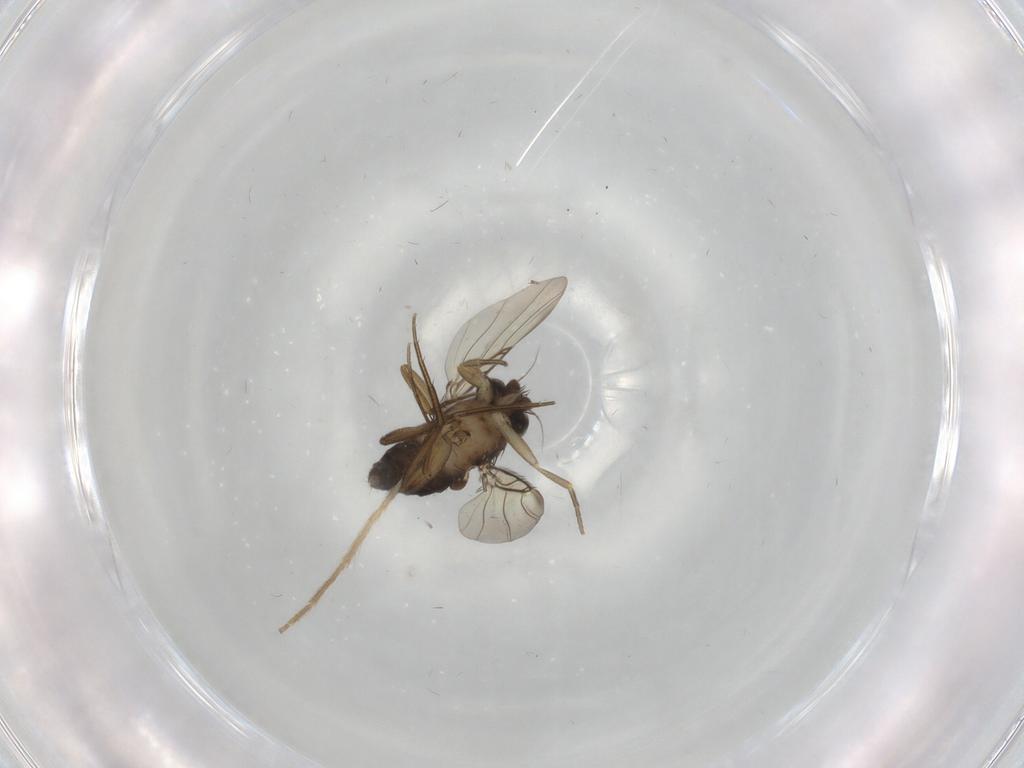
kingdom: Animalia
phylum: Arthropoda
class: Insecta
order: Diptera
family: Phoridae
